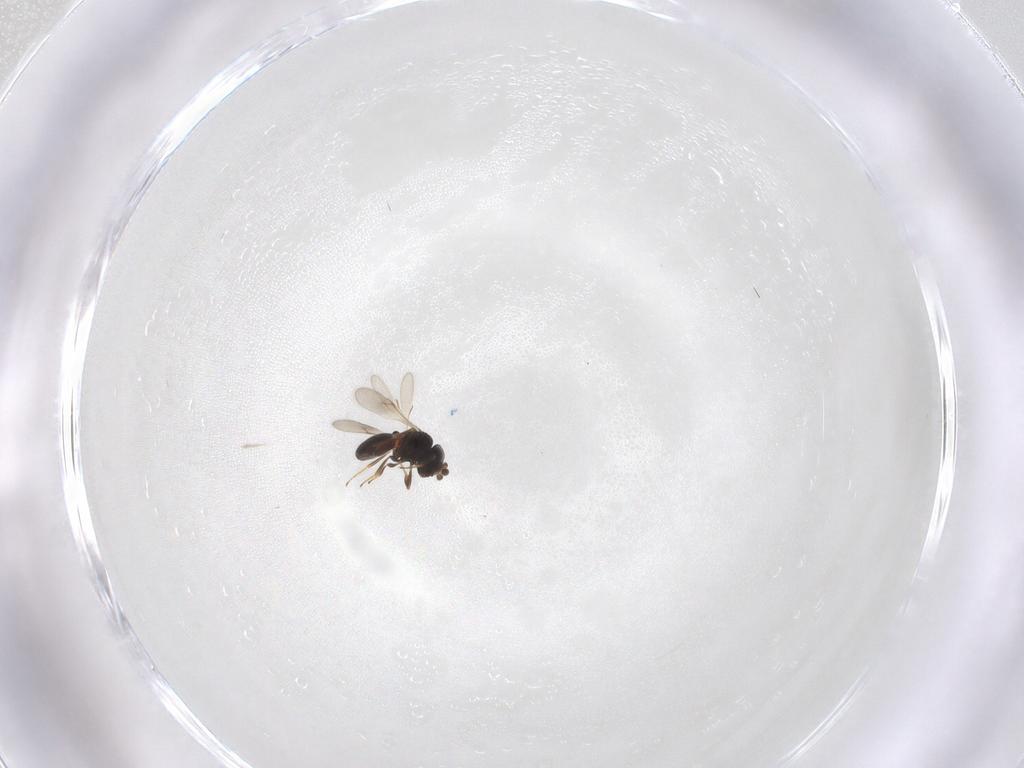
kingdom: Animalia
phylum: Arthropoda
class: Insecta
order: Hymenoptera
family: Scelionidae
